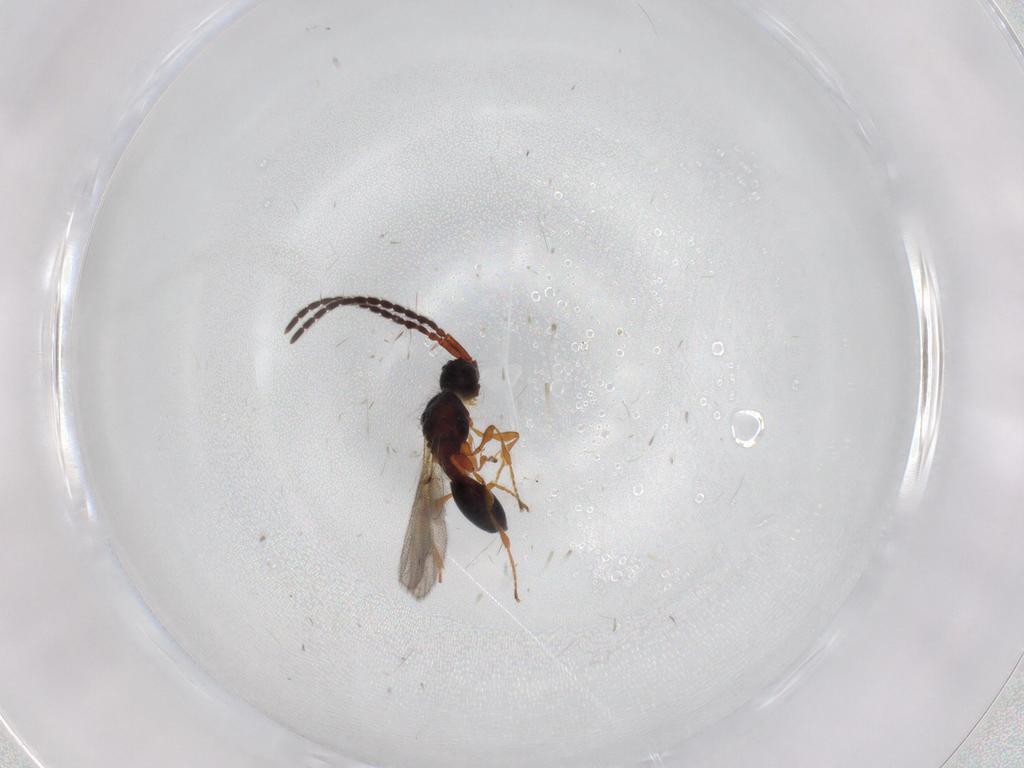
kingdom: Animalia
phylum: Arthropoda
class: Insecta
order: Hymenoptera
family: Diapriidae
